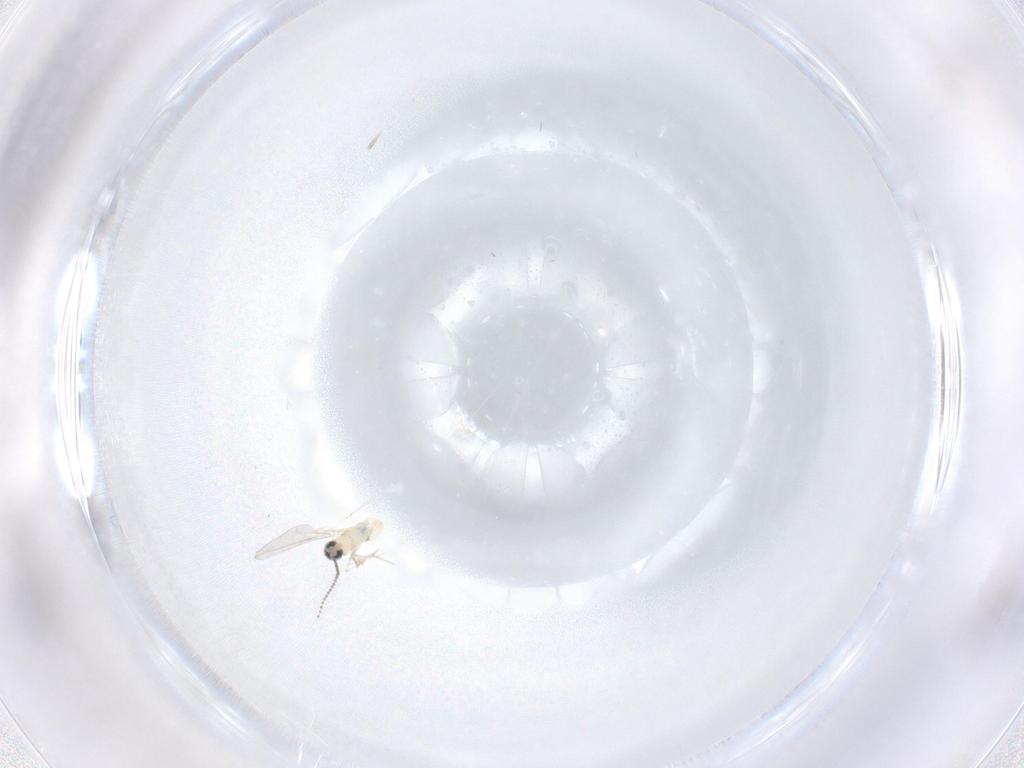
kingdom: Animalia
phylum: Arthropoda
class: Insecta
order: Diptera
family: Cecidomyiidae
